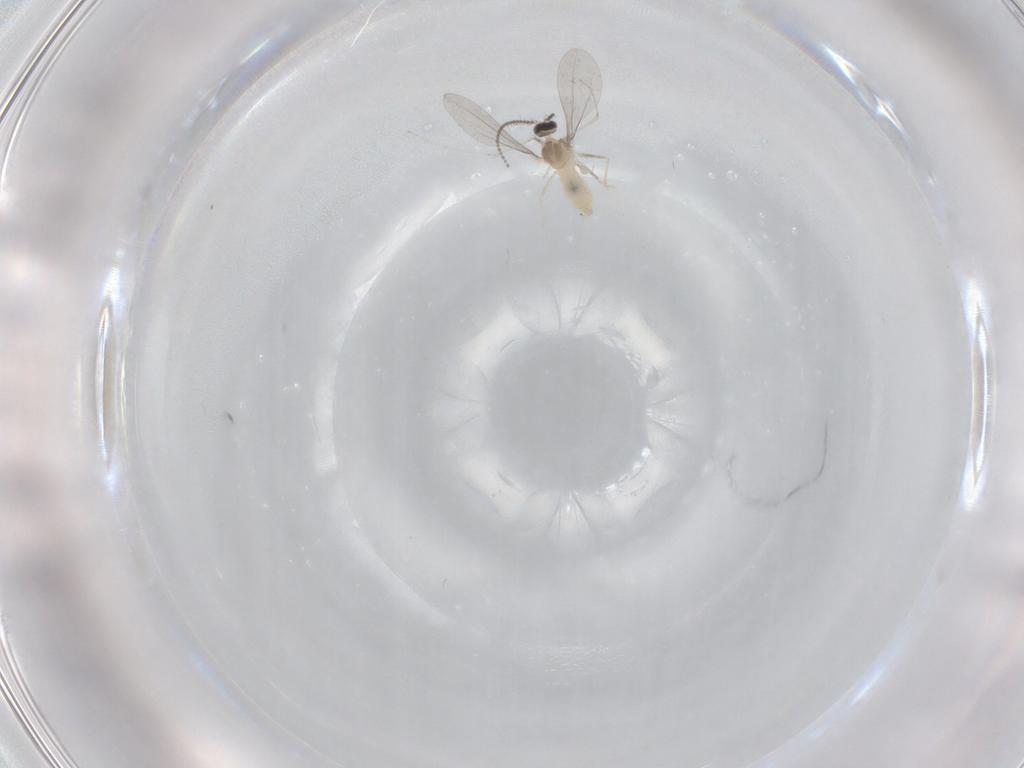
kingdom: Animalia
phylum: Arthropoda
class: Insecta
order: Diptera
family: Cecidomyiidae
